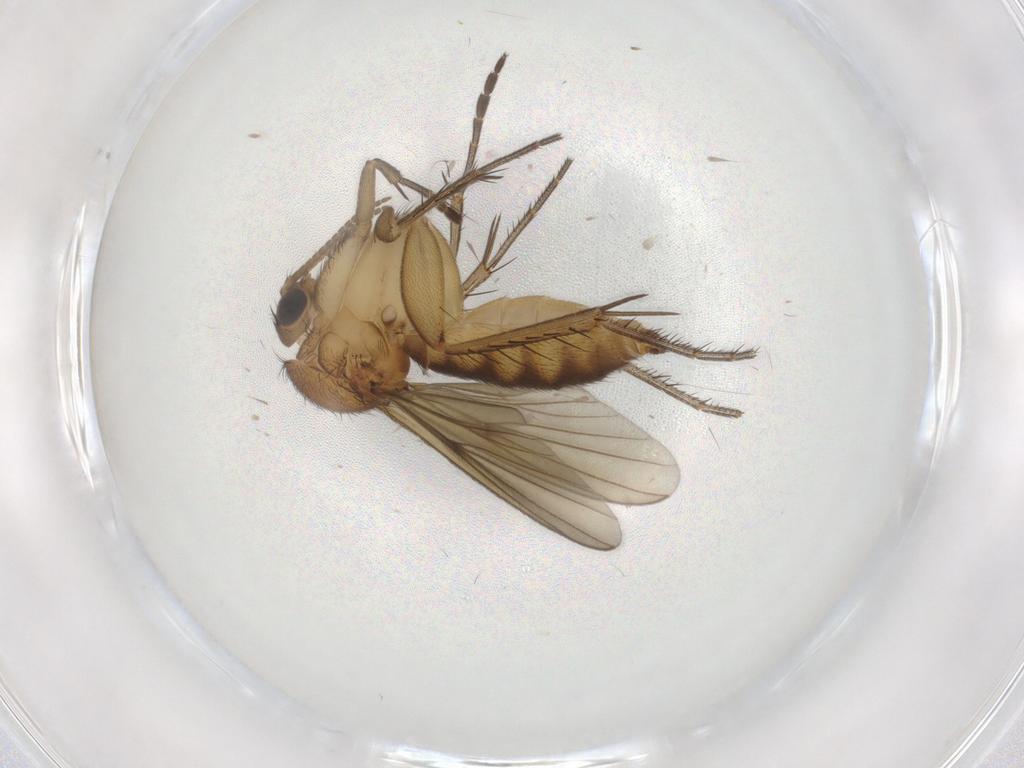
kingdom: Animalia
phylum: Arthropoda
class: Insecta
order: Diptera
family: Mycetophilidae
